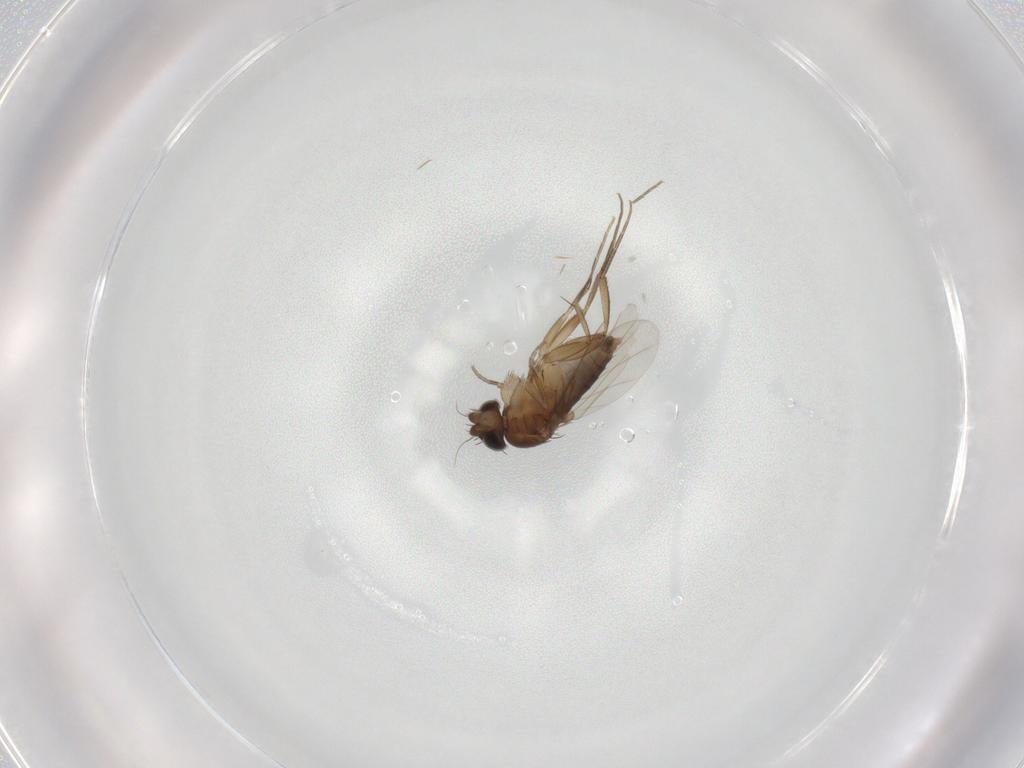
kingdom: Animalia
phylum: Arthropoda
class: Insecta
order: Diptera
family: Phoridae
